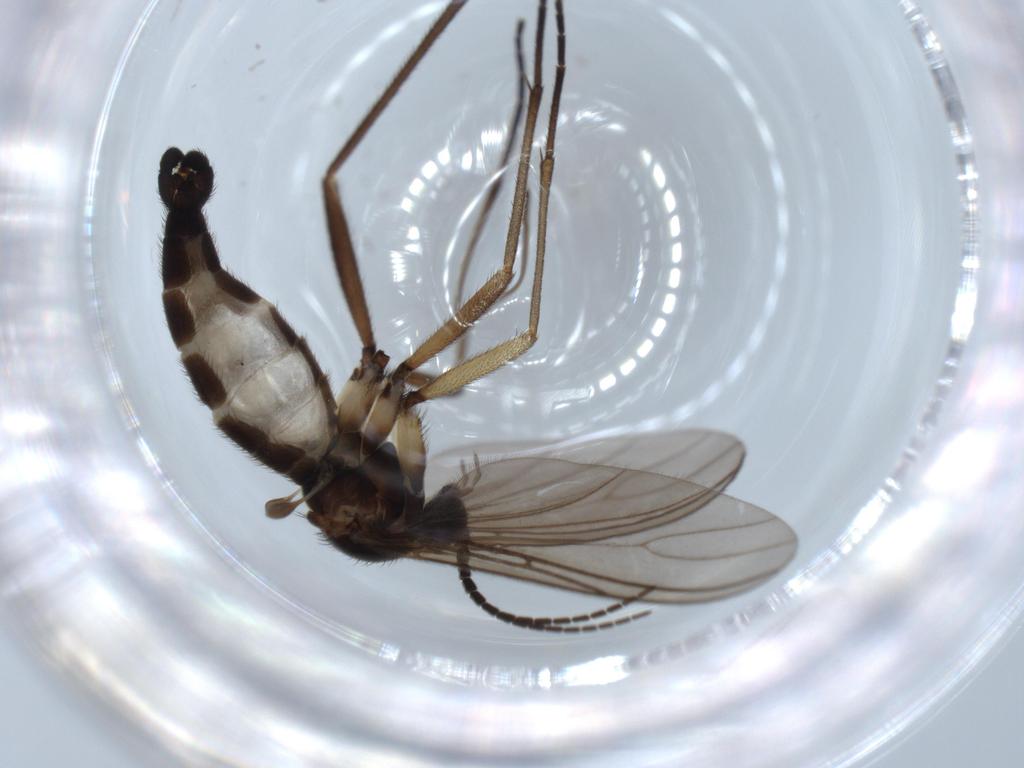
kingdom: Animalia
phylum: Arthropoda
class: Insecta
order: Diptera
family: Sciaridae
